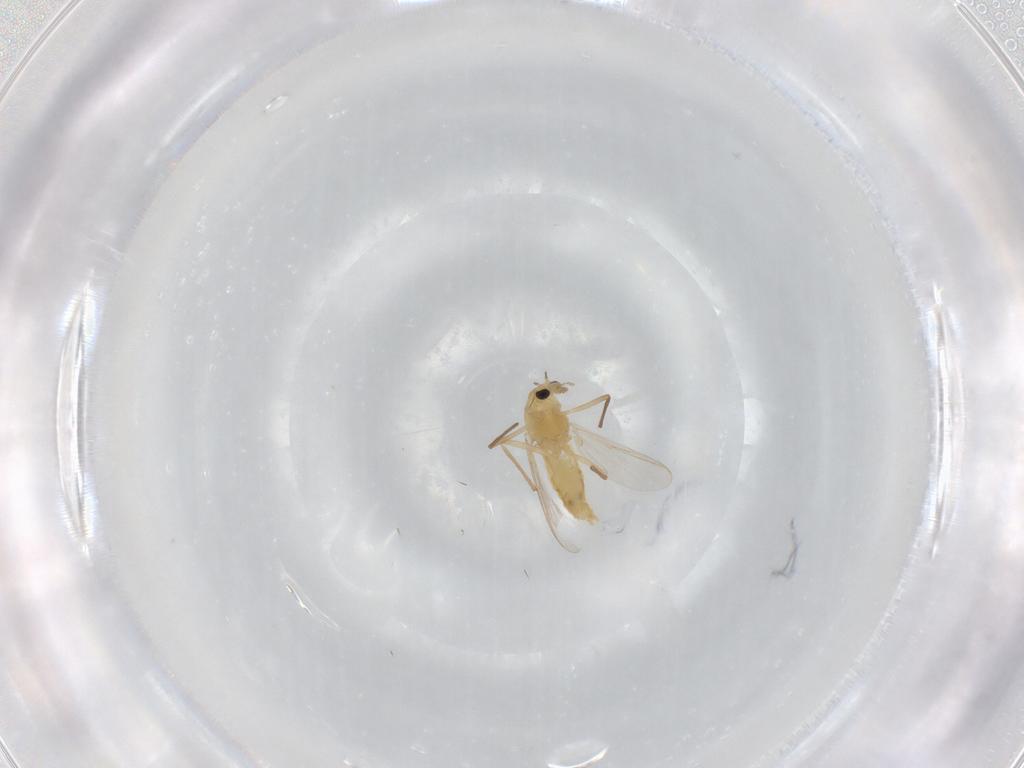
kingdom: Animalia
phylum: Arthropoda
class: Insecta
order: Diptera
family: Chironomidae
